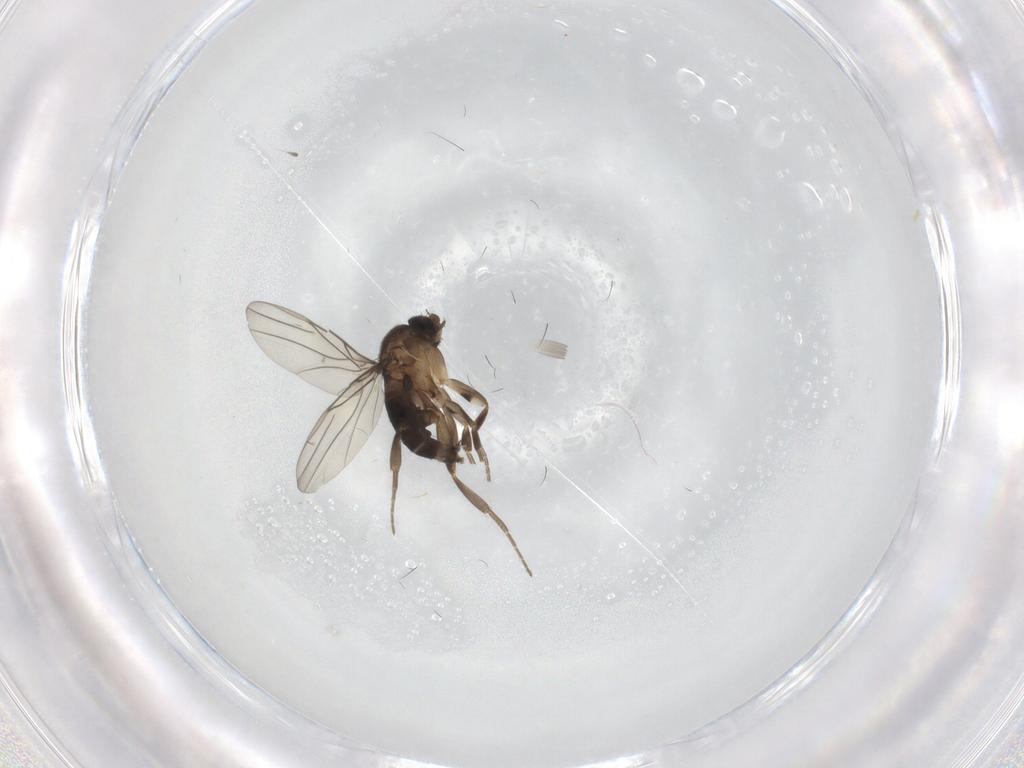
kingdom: Animalia
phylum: Arthropoda
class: Insecta
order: Diptera
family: Phoridae
